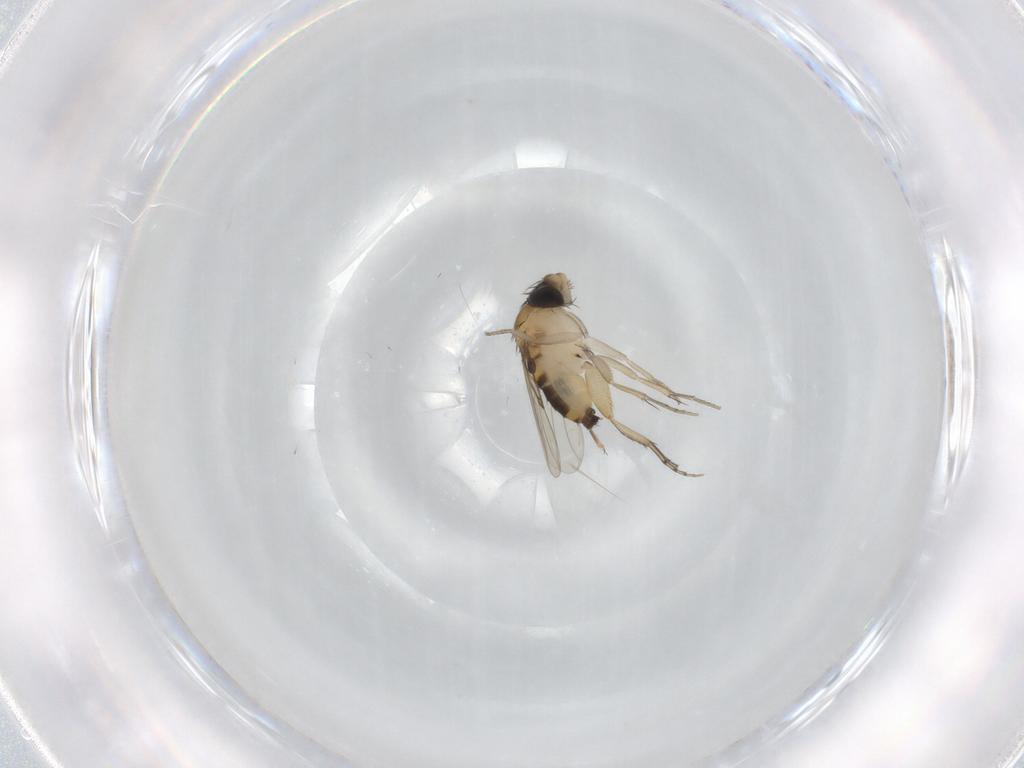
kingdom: Animalia
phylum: Arthropoda
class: Insecta
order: Diptera
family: Phoridae
